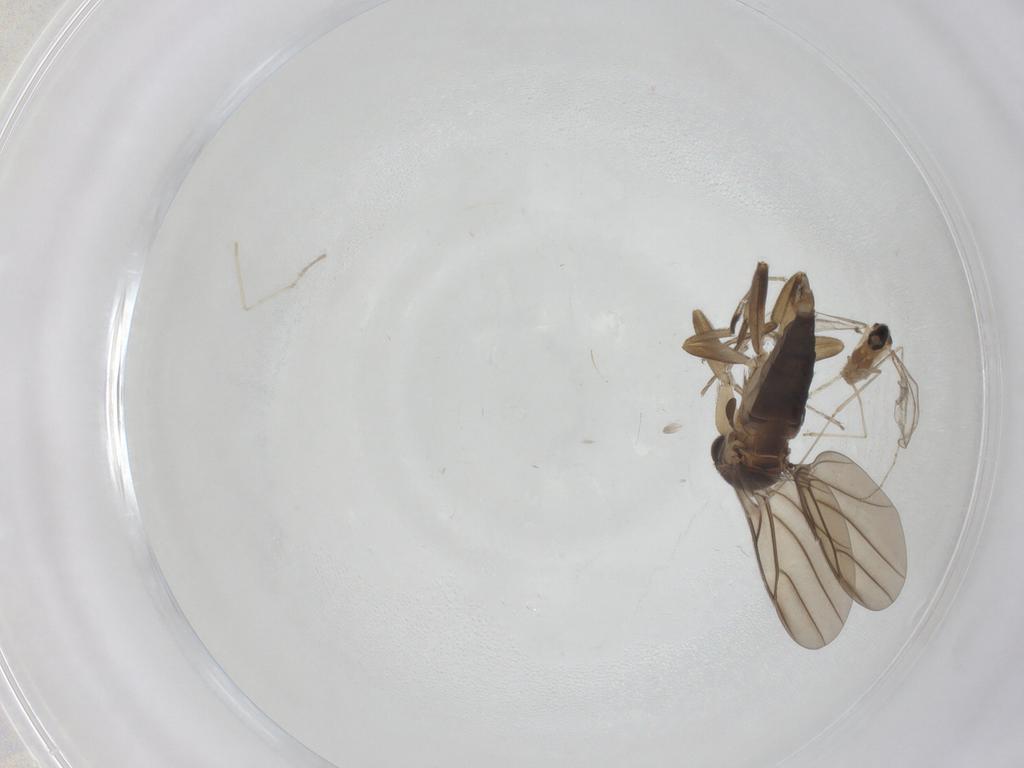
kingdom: Animalia
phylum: Arthropoda
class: Insecta
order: Diptera
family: Cecidomyiidae
